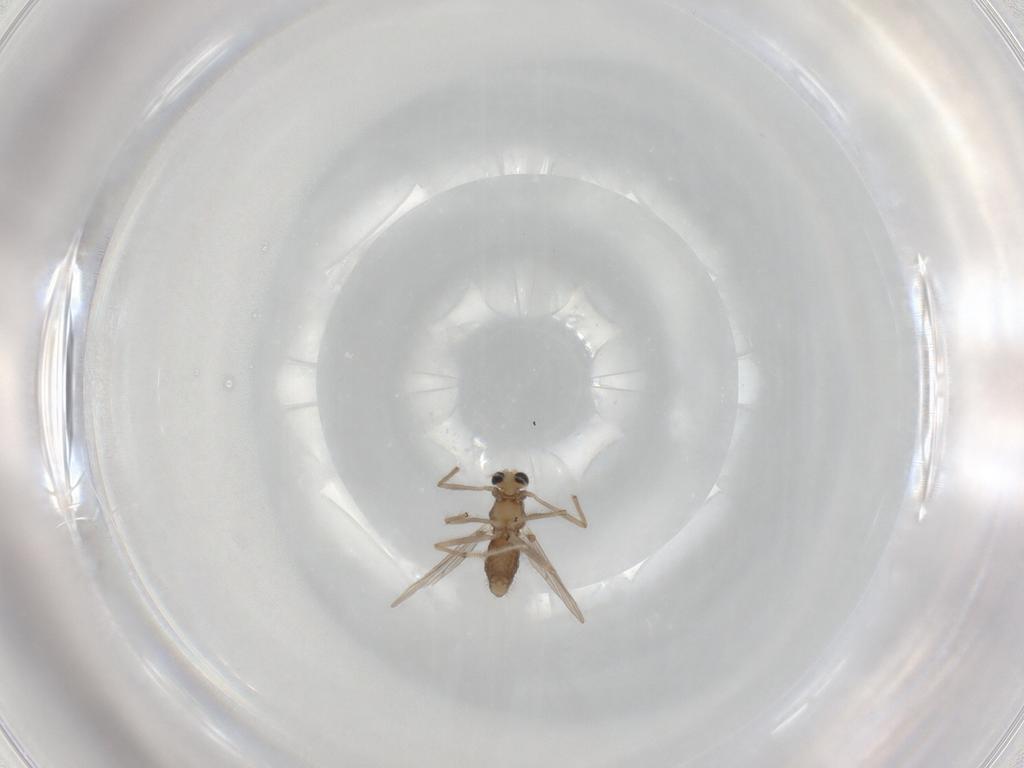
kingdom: Animalia
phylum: Arthropoda
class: Insecta
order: Diptera
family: Chironomidae
